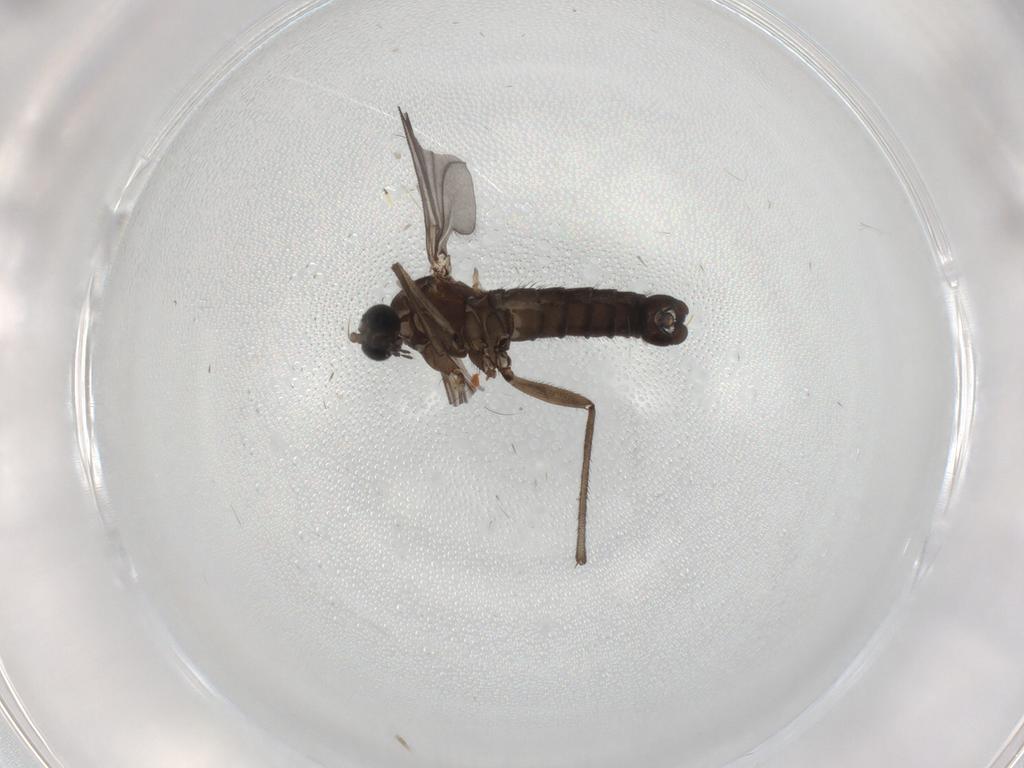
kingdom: Animalia
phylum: Arthropoda
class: Insecta
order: Diptera
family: Sciaridae
